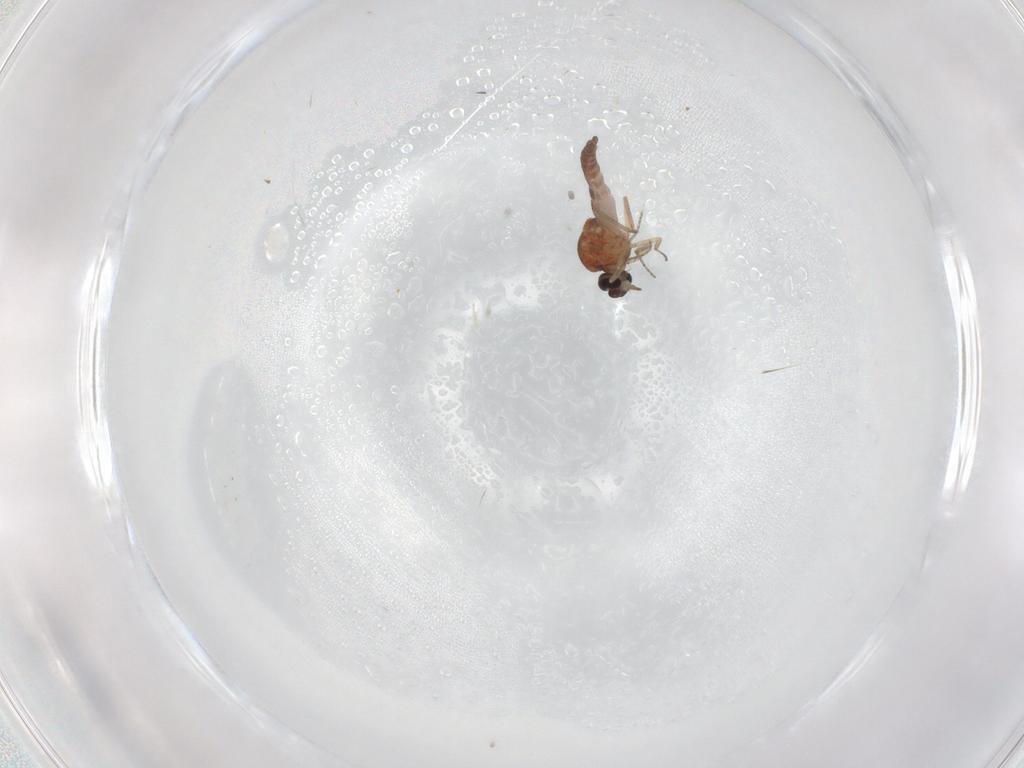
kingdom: Animalia
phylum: Arthropoda
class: Insecta
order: Diptera
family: Ceratopogonidae
